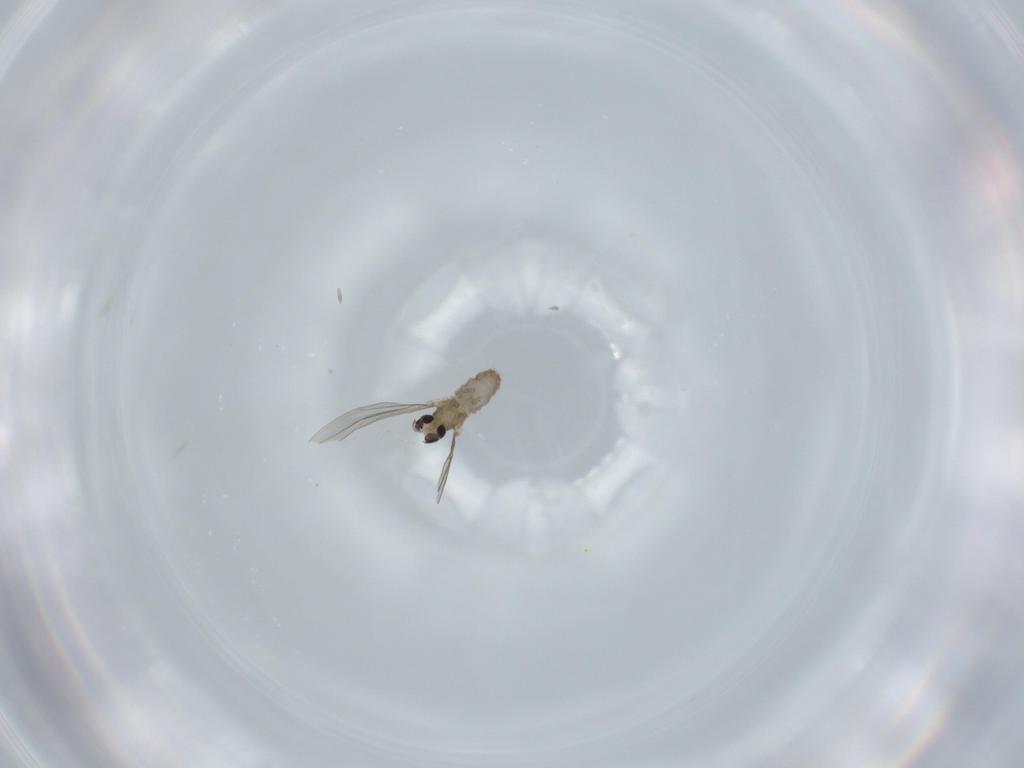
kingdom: Animalia
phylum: Arthropoda
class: Insecta
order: Diptera
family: Cecidomyiidae
